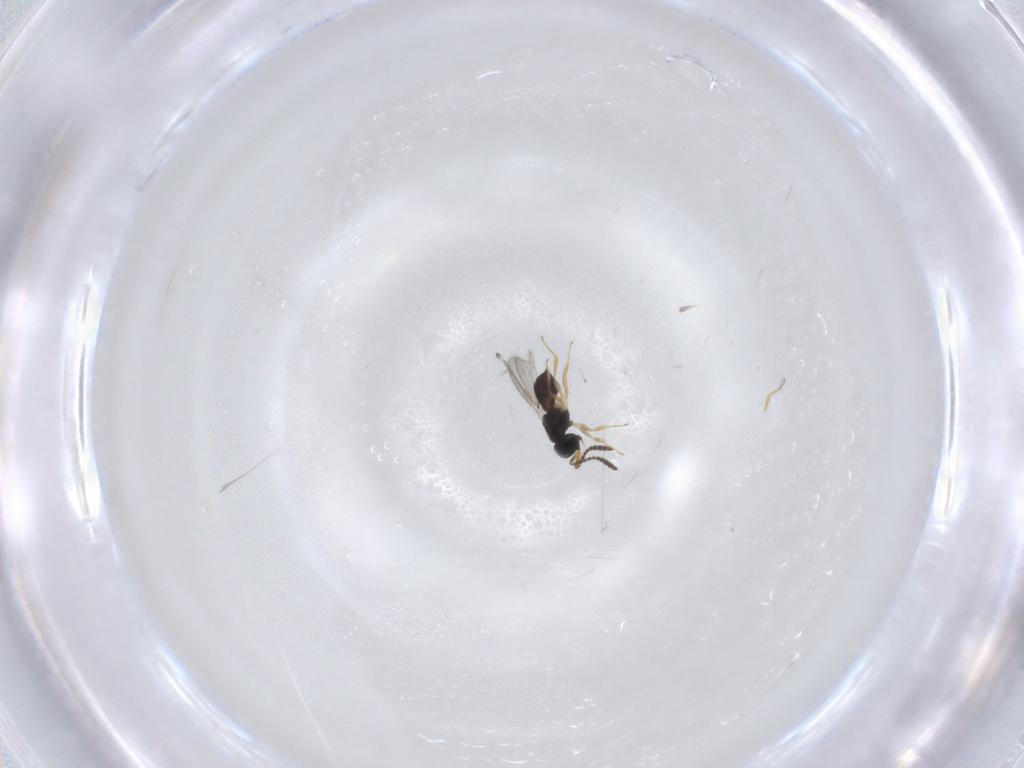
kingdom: Animalia
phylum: Arthropoda
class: Insecta
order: Hymenoptera
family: Scelionidae
